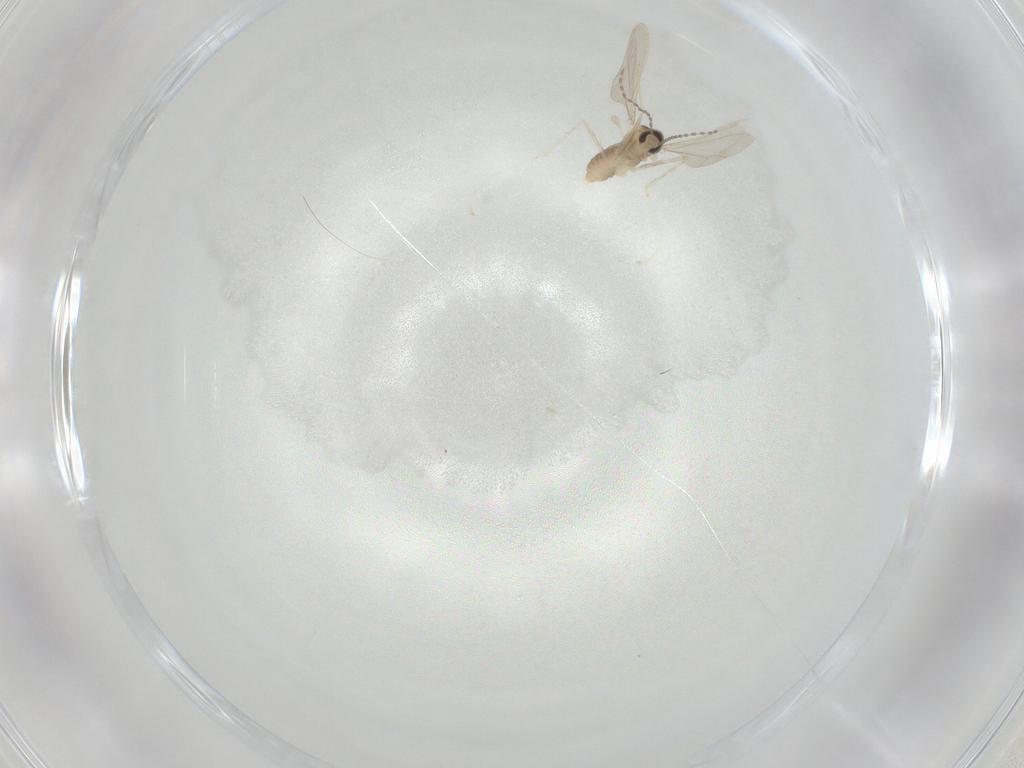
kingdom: Animalia
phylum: Arthropoda
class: Insecta
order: Diptera
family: Cecidomyiidae
